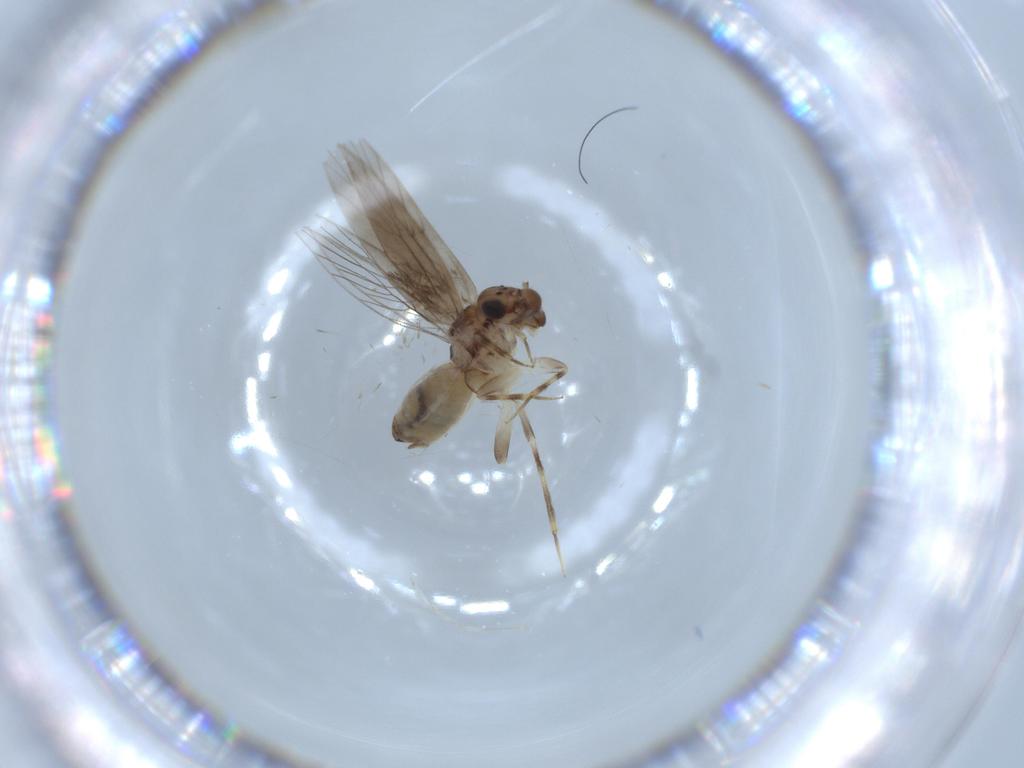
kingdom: Animalia
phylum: Arthropoda
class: Insecta
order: Psocodea
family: Lepidopsocidae
